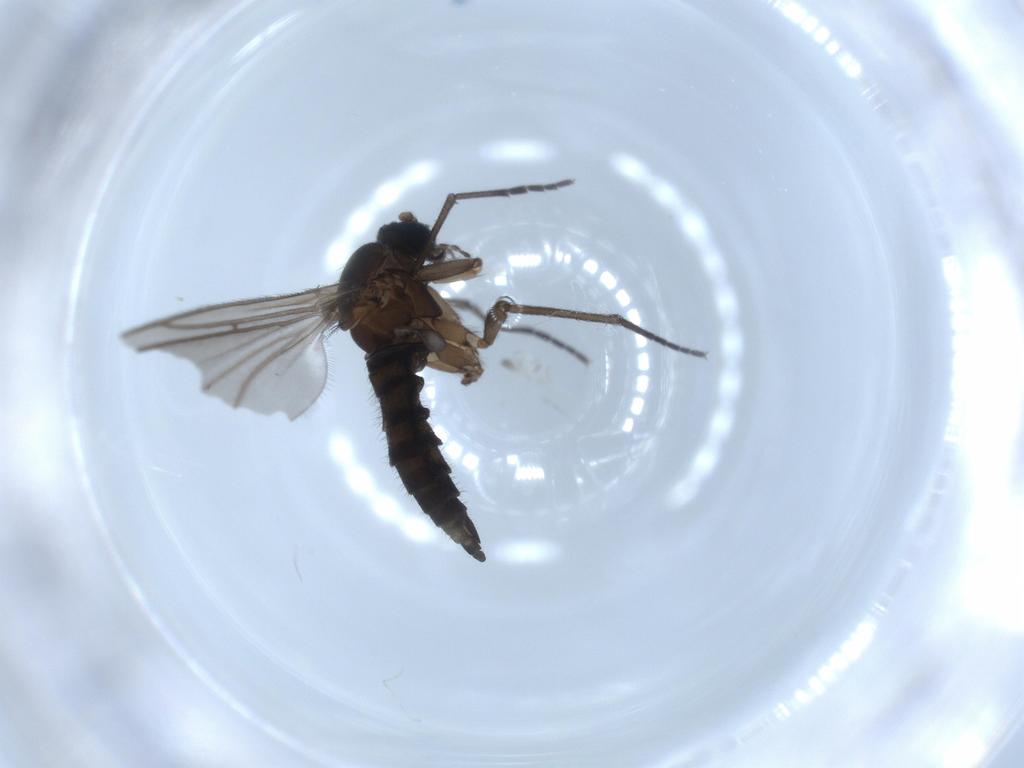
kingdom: Animalia
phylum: Arthropoda
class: Insecta
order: Diptera
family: Sciaridae
